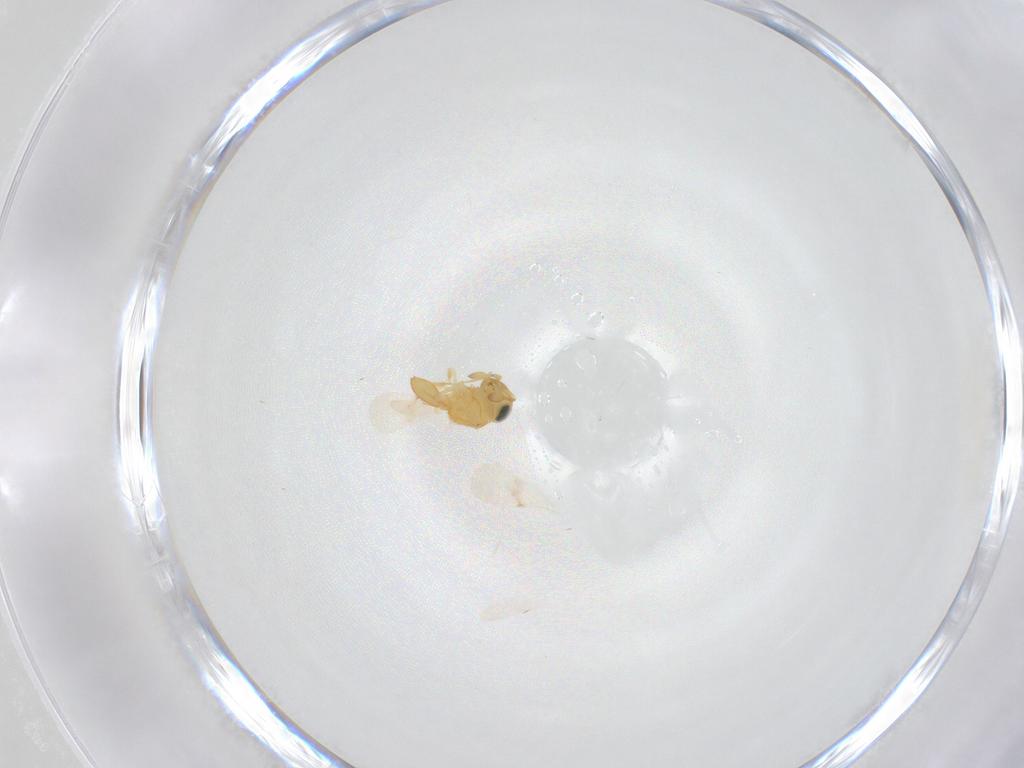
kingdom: Animalia
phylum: Arthropoda
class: Insecta
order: Hymenoptera
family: Scelionidae
